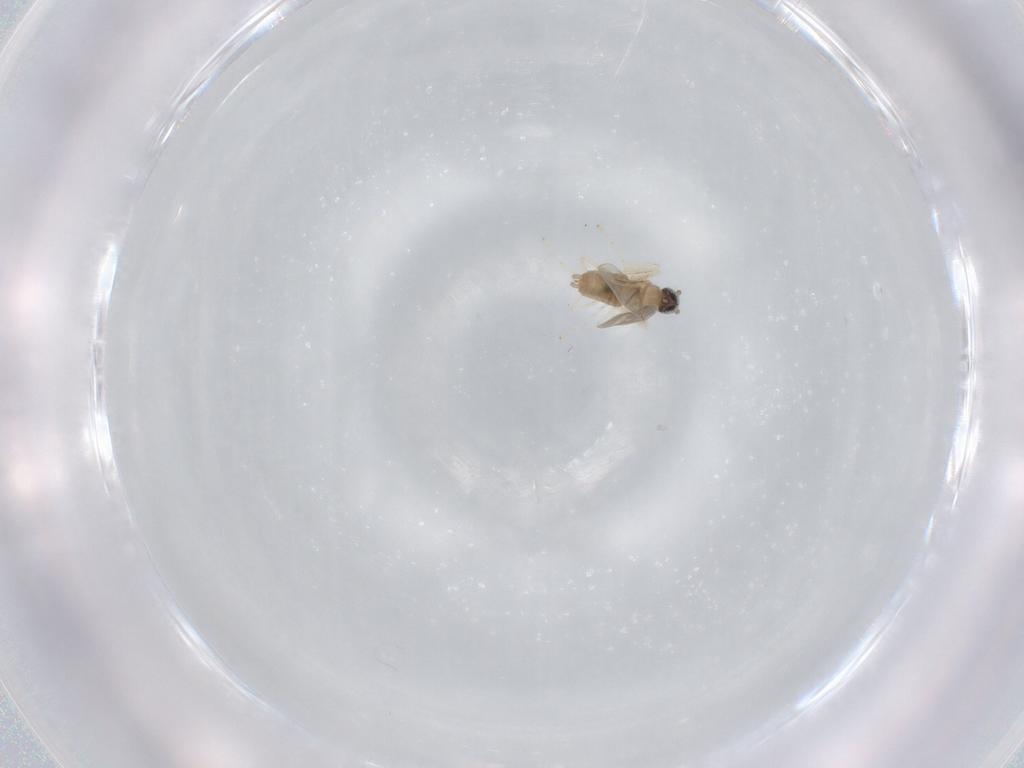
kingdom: Animalia
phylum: Arthropoda
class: Insecta
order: Diptera
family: Cecidomyiidae
